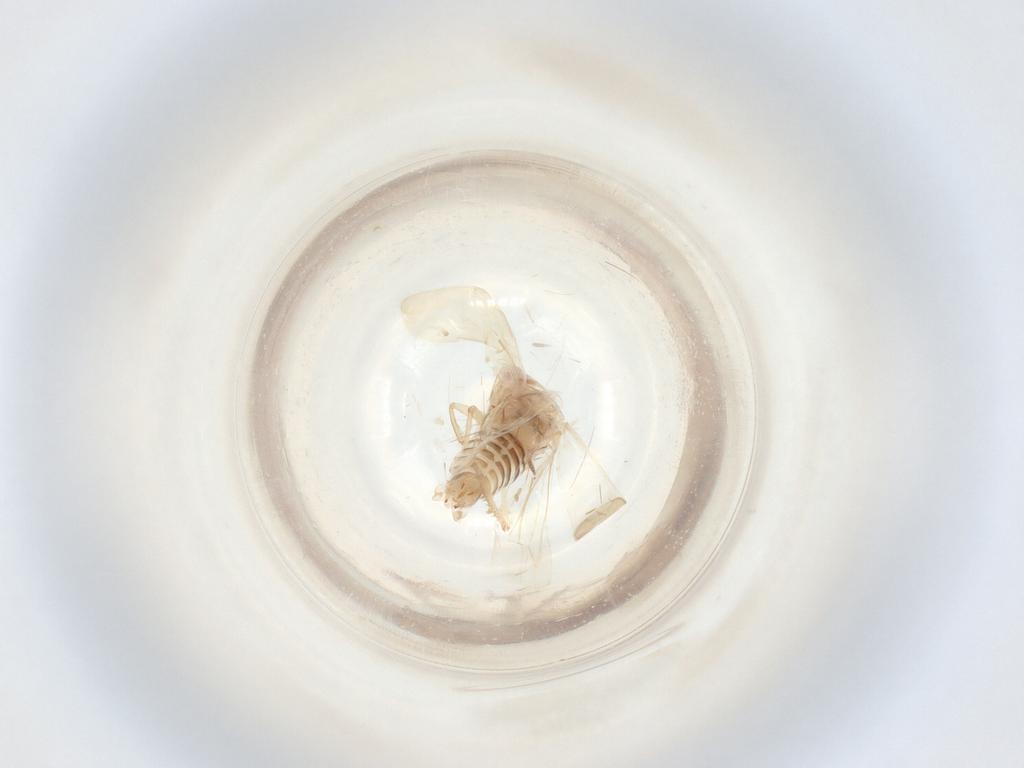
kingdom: Animalia
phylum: Arthropoda
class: Insecta
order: Hemiptera
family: Cicadellidae
